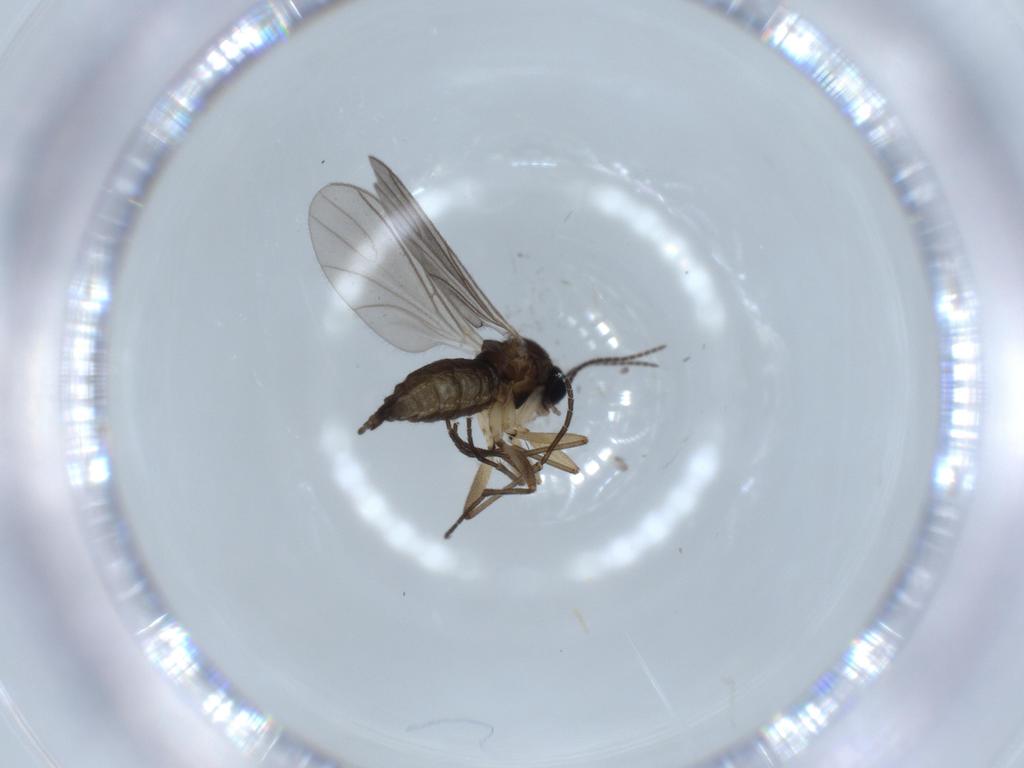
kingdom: Animalia
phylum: Arthropoda
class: Insecta
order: Diptera
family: Sciaridae
